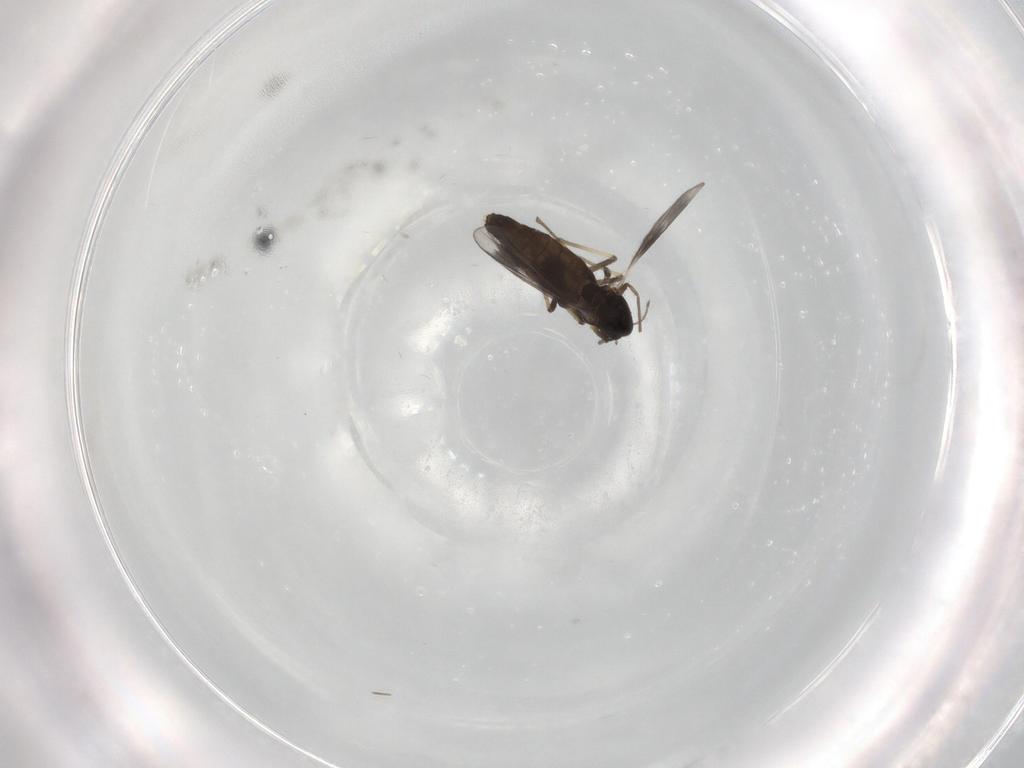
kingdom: Animalia
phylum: Arthropoda
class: Insecta
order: Diptera
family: Chironomidae
